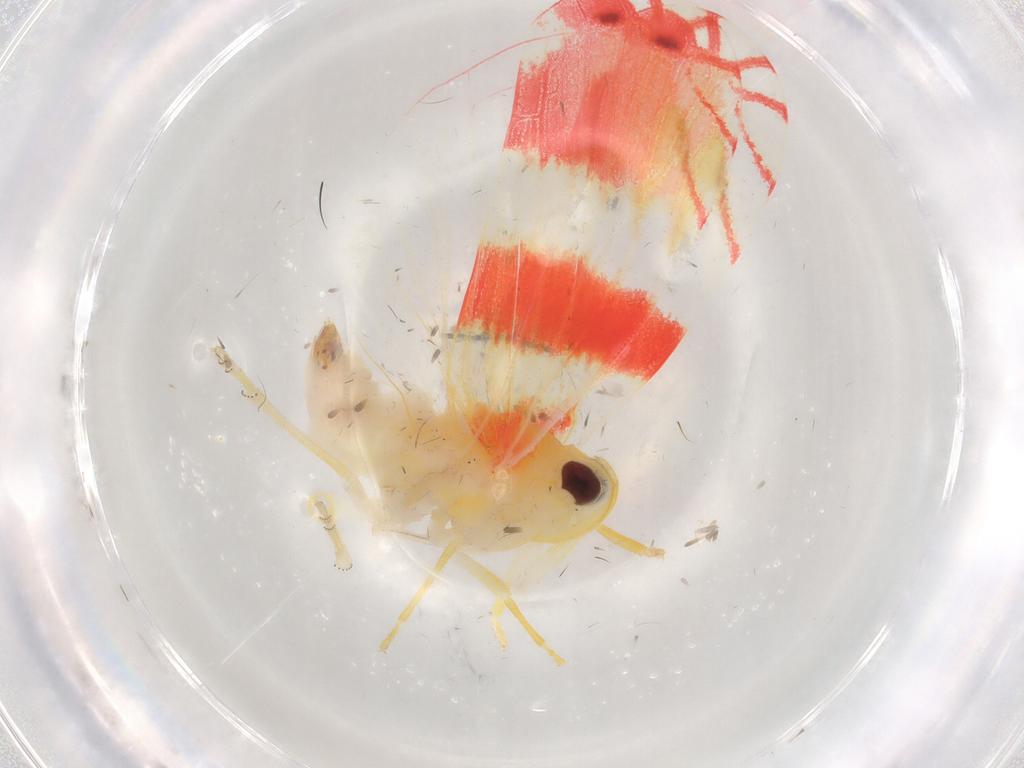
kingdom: Animalia
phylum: Arthropoda
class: Insecta
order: Hemiptera
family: Derbidae
